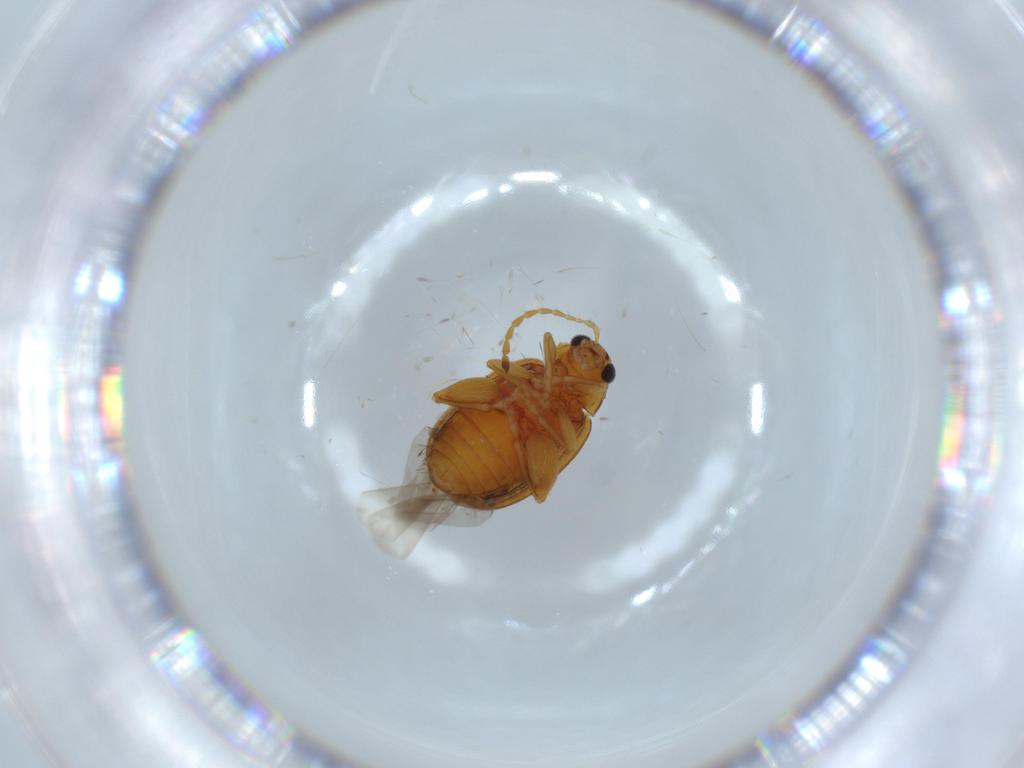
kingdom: Animalia
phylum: Arthropoda
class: Insecta
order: Coleoptera
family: Chrysomelidae
